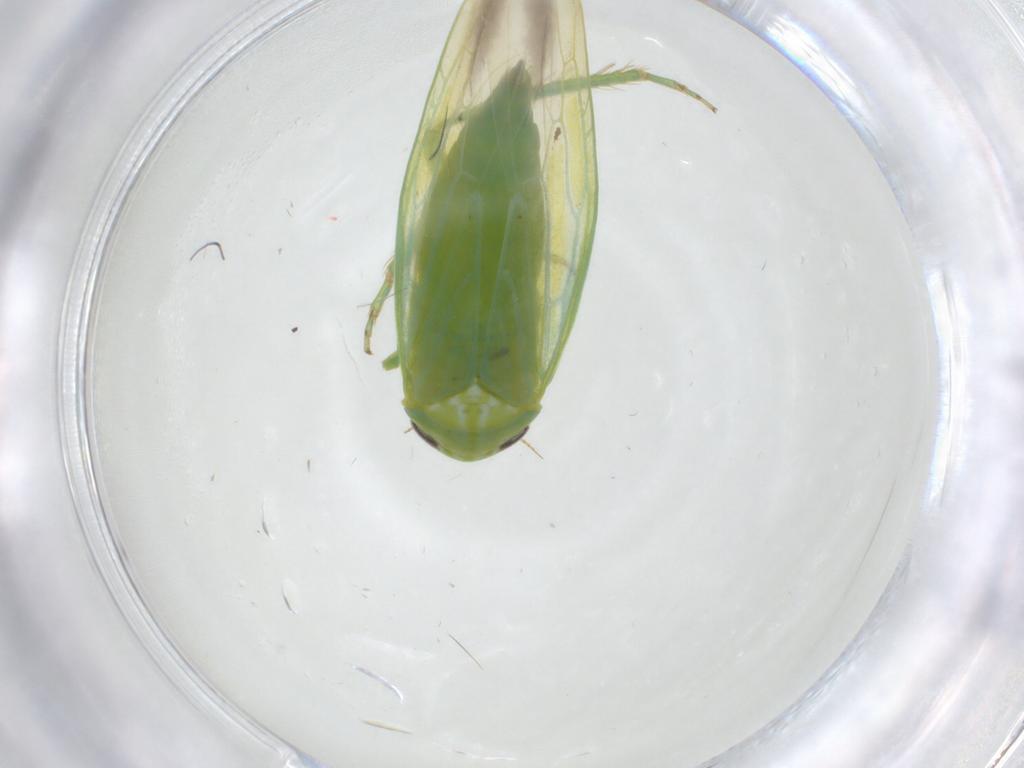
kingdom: Animalia
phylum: Arthropoda
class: Insecta
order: Hemiptera
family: Cicadellidae
